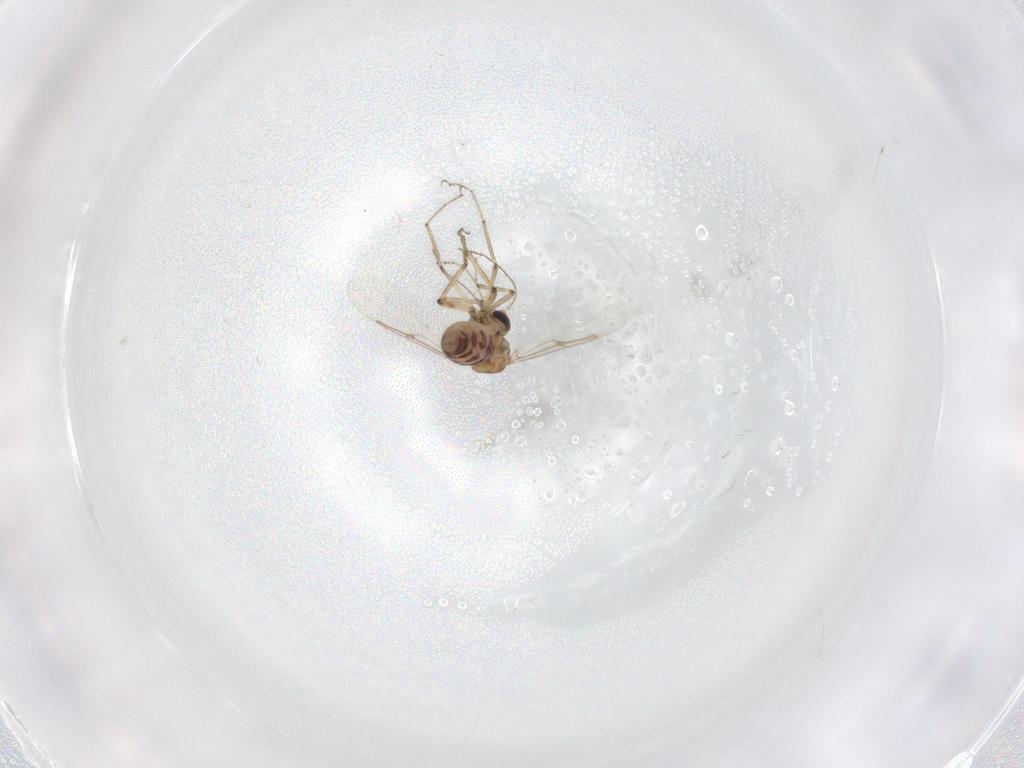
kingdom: Animalia
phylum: Arthropoda
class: Insecta
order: Diptera
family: Ceratopogonidae
